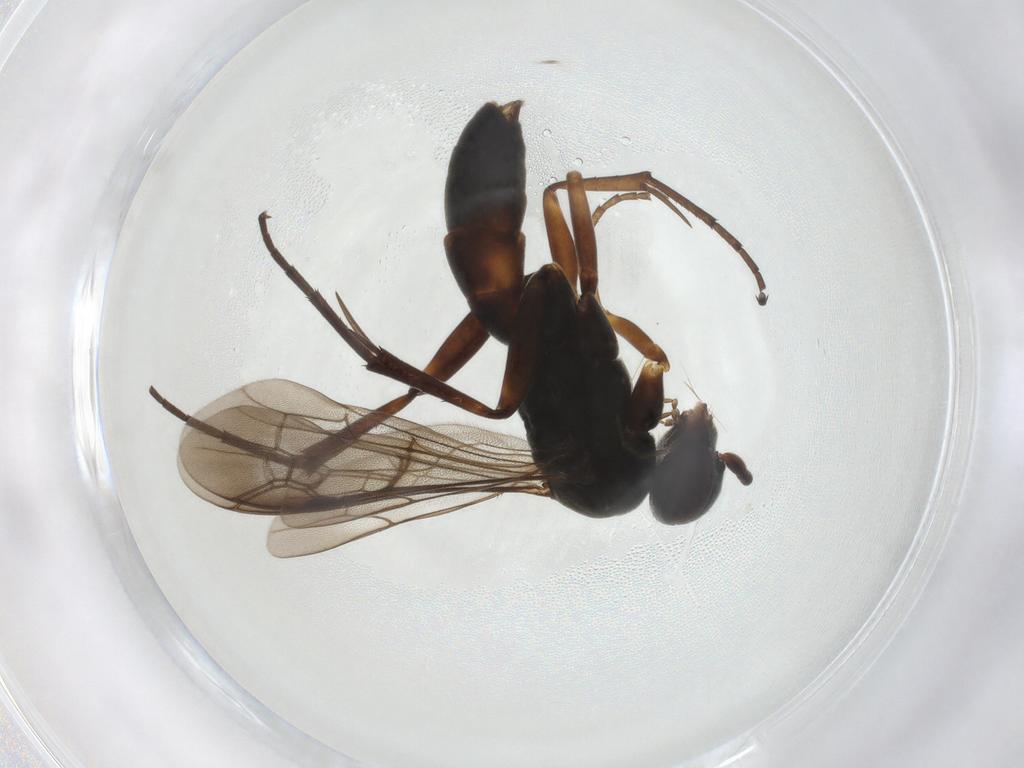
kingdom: Animalia
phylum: Arthropoda
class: Insecta
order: Hymenoptera
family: Pompilidae
